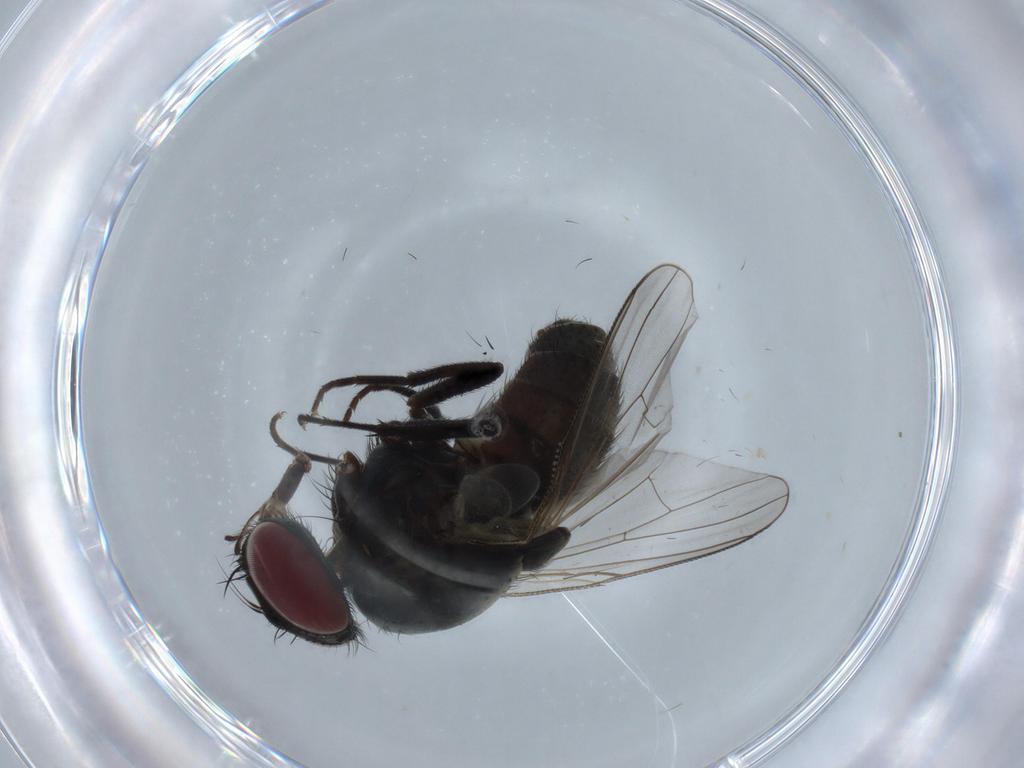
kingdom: Animalia
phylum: Arthropoda
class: Insecta
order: Diptera
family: Muscidae
